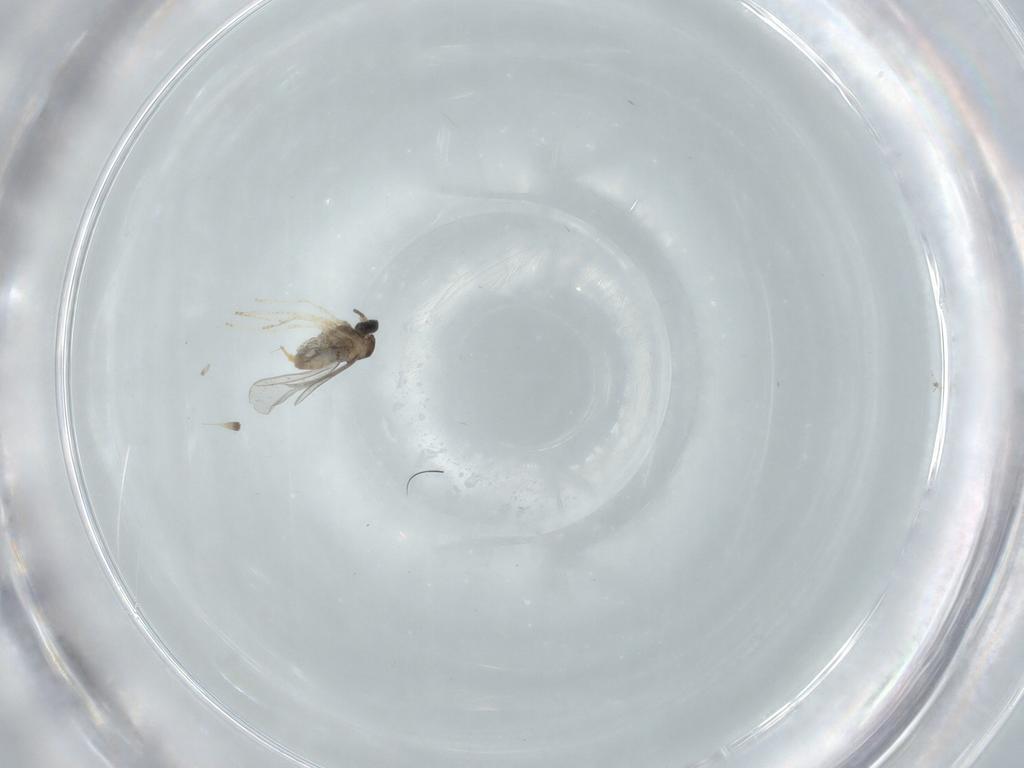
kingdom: Animalia
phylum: Arthropoda
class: Insecta
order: Diptera
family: Cecidomyiidae
